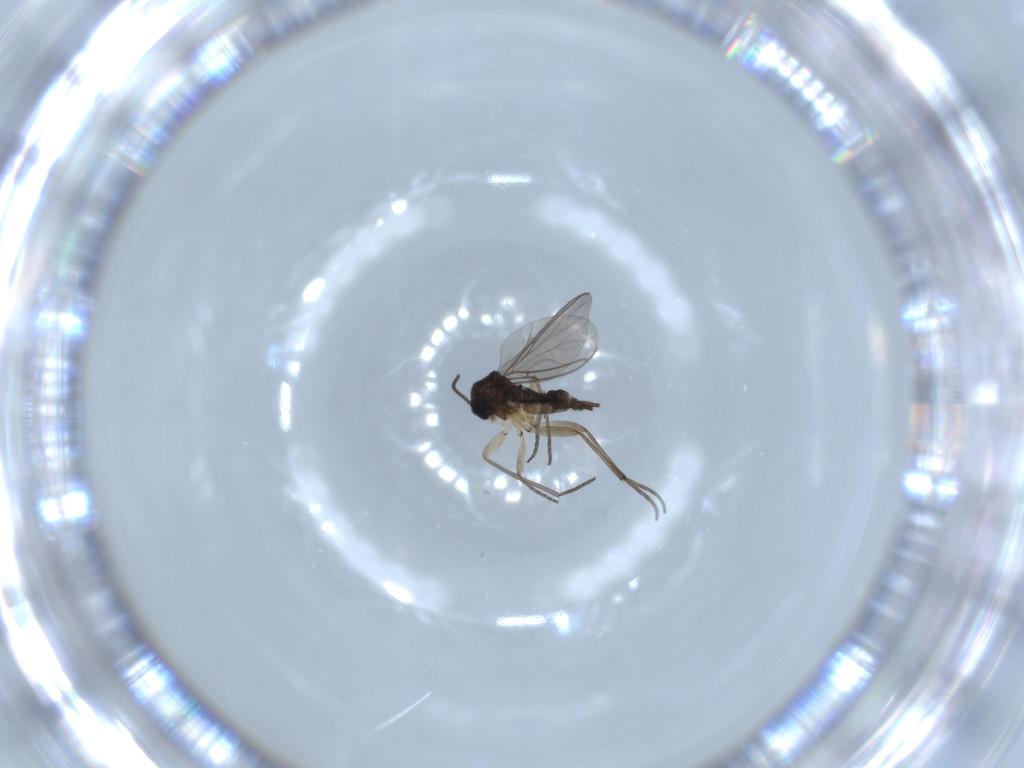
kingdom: Animalia
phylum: Arthropoda
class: Insecta
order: Diptera
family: Sciaridae
